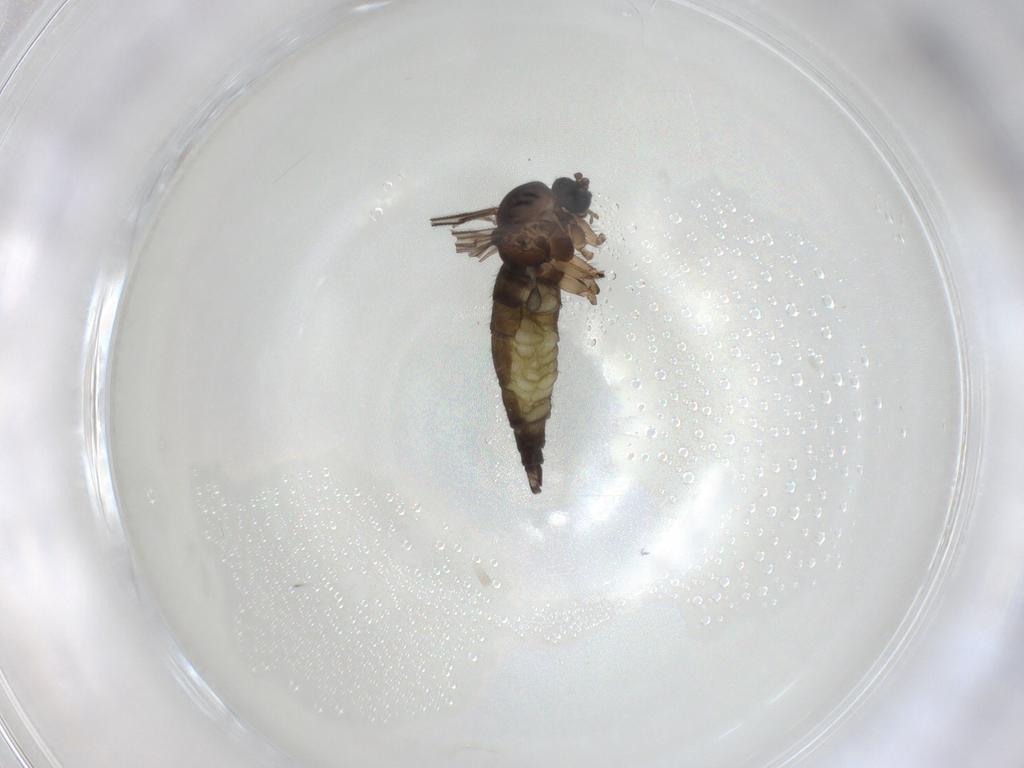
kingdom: Animalia
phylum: Arthropoda
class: Insecta
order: Diptera
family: Sciaridae
